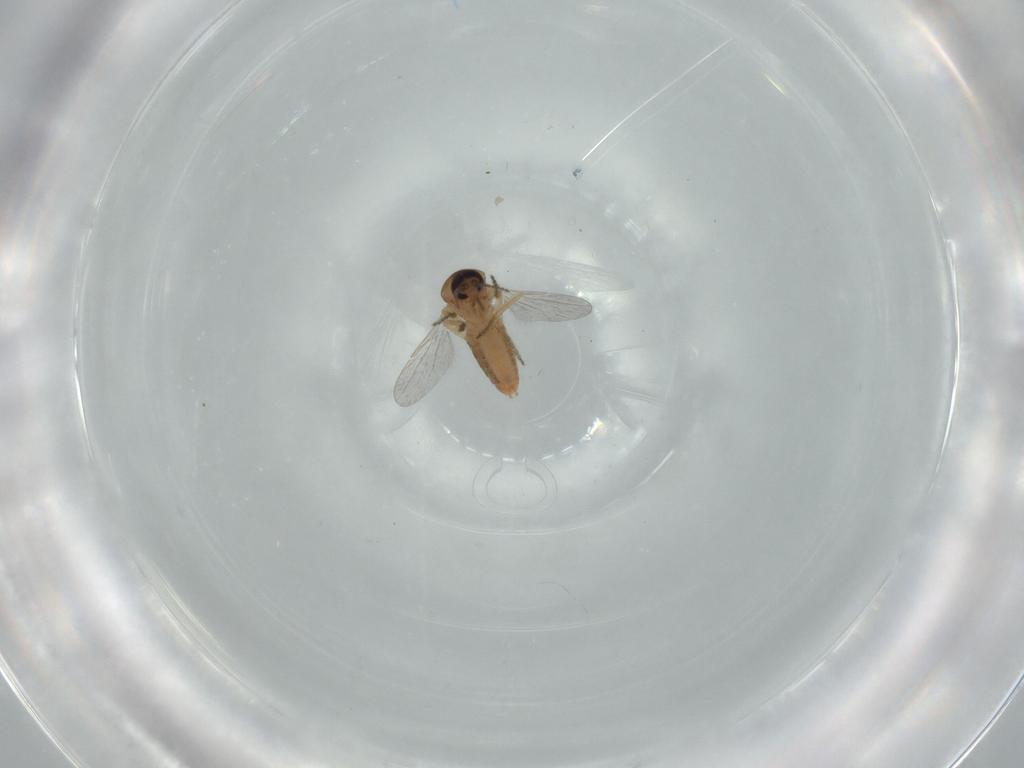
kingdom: Animalia
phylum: Arthropoda
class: Insecta
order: Diptera
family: Ceratopogonidae
